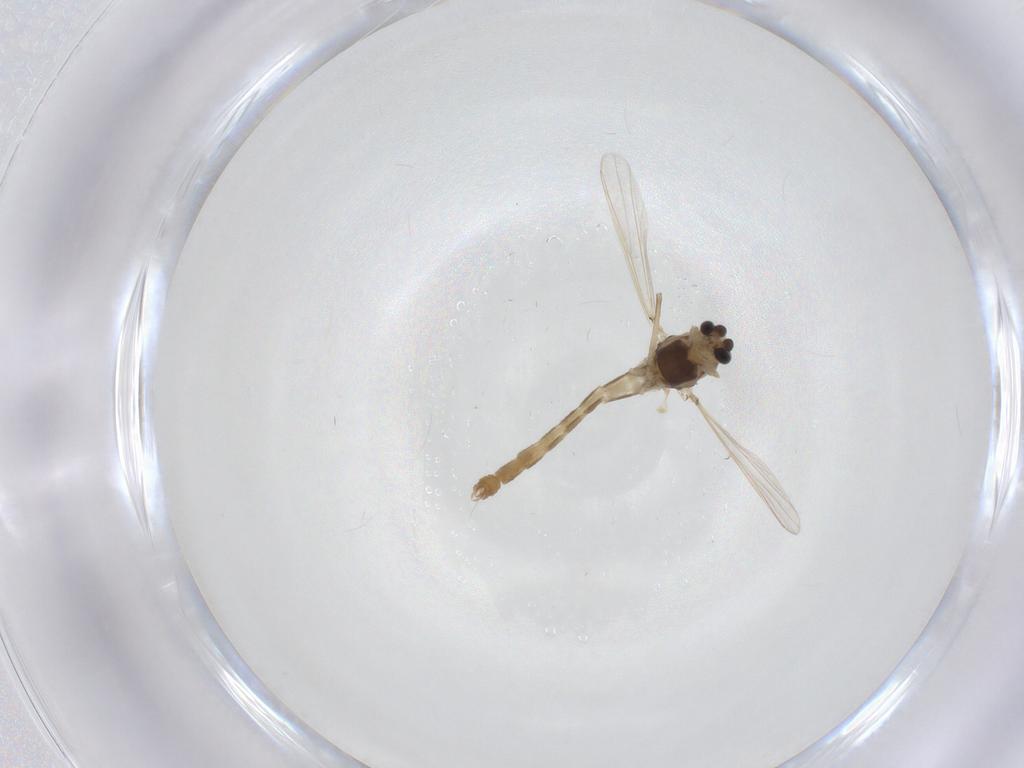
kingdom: Animalia
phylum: Arthropoda
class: Insecta
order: Diptera
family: Chironomidae
